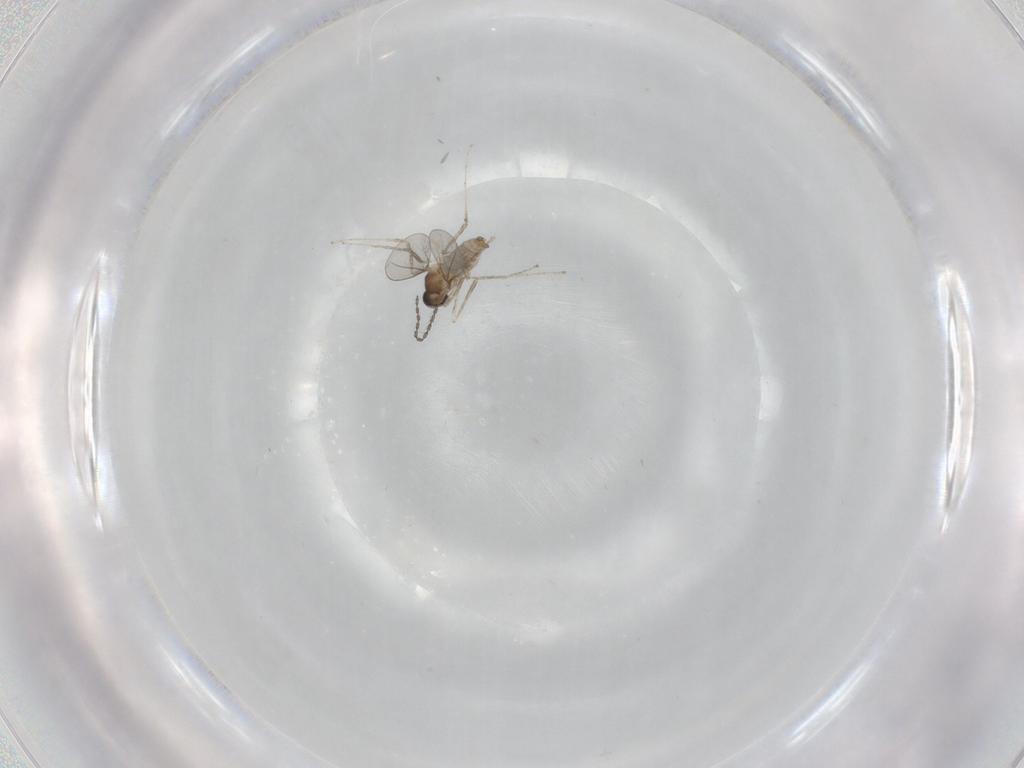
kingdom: Animalia
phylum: Arthropoda
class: Insecta
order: Diptera
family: Cecidomyiidae
